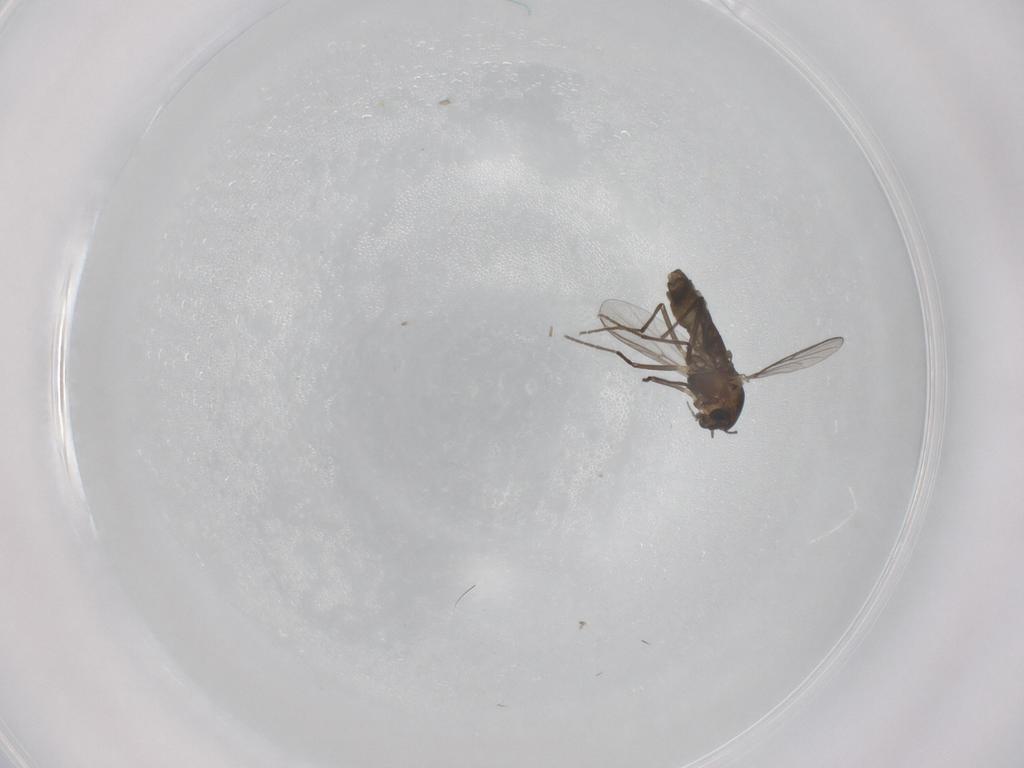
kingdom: Animalia
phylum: Arthropoda
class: Insecta
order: Diptera
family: Chironomidae
